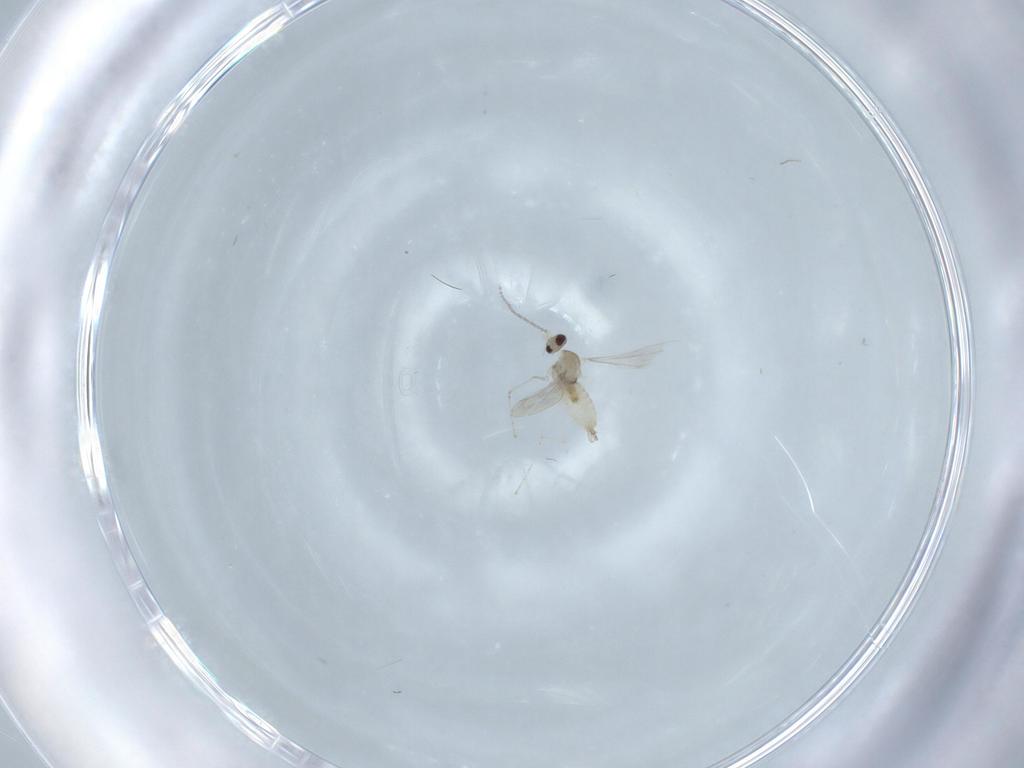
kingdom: Animalia
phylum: Arthropoda
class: Insecta
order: Diptera
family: Cecidomyiidae
